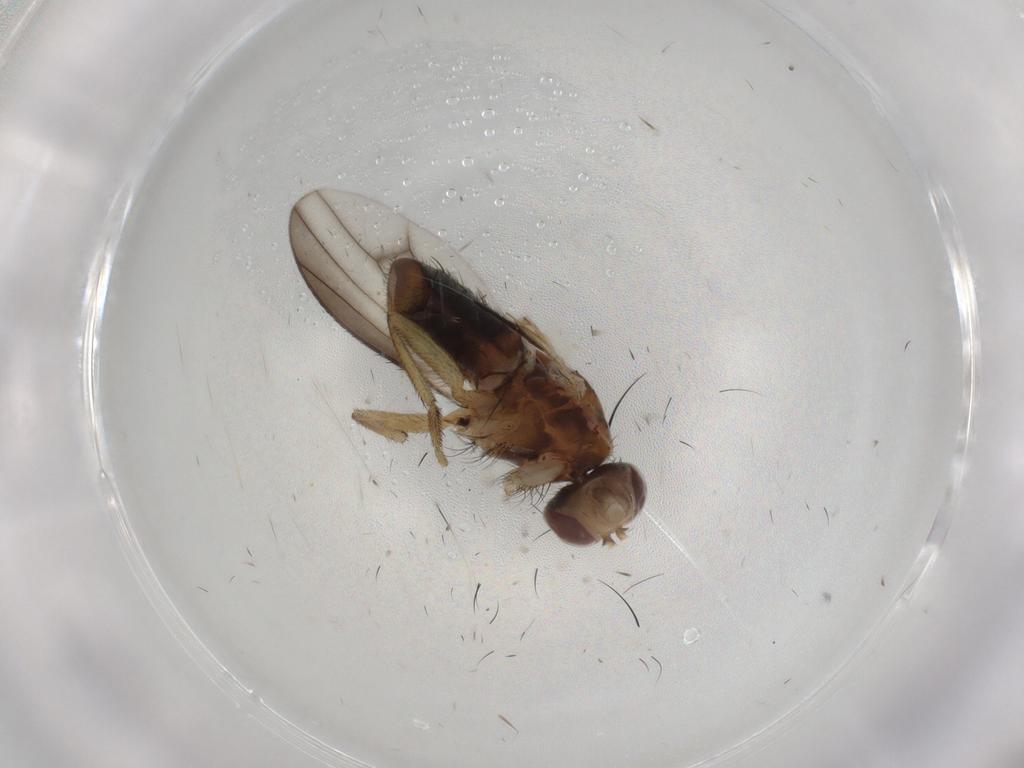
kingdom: Animalia
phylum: Arthropoda
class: Insecta
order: Diptera
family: Heleomyzidae
